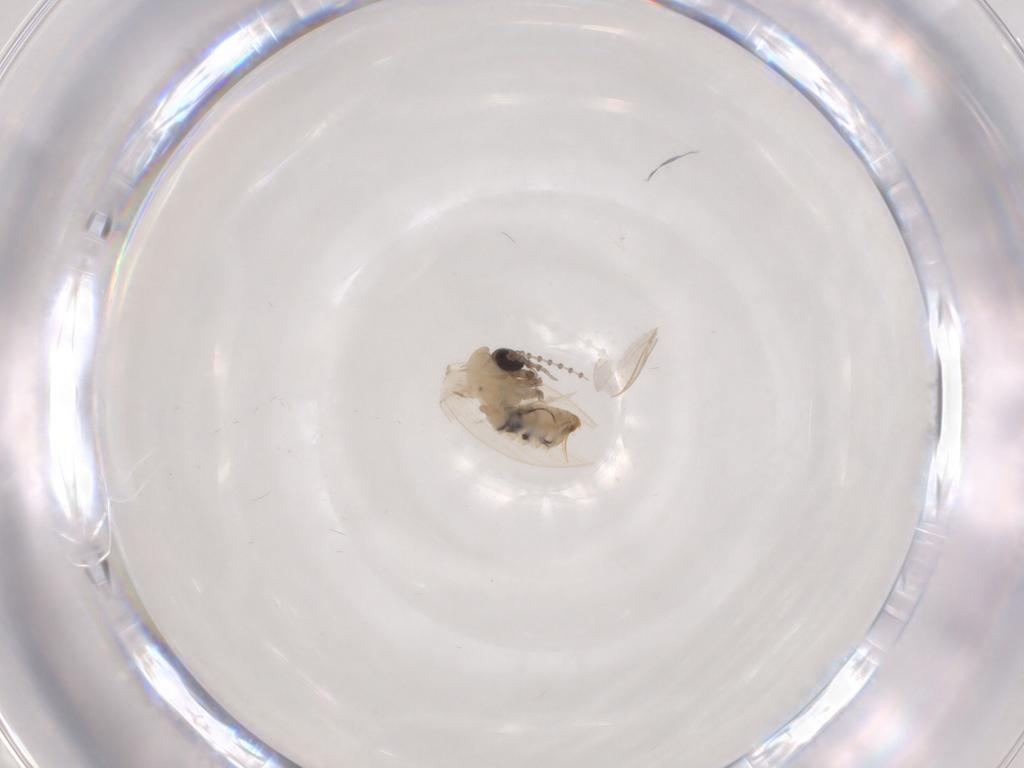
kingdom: Animalia
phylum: Arthropoda
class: Insecta
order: Diptera
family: Psychodidae
